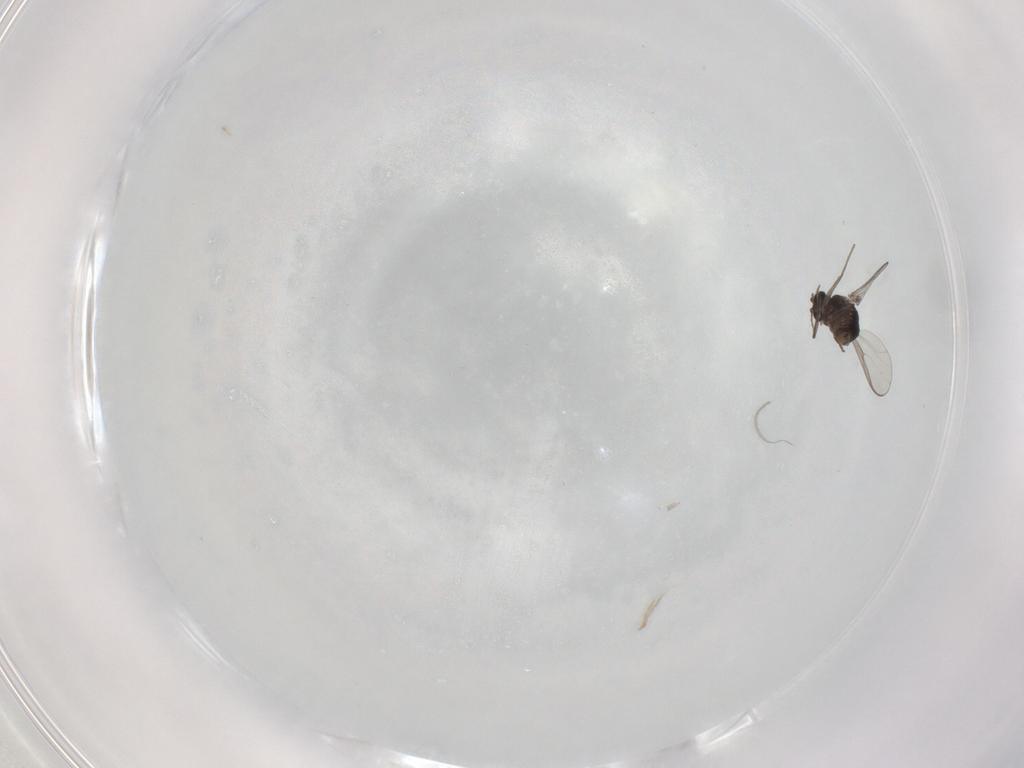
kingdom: Animalia
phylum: Arthropoda
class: Insecta
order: Diptera
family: Chironomidae
